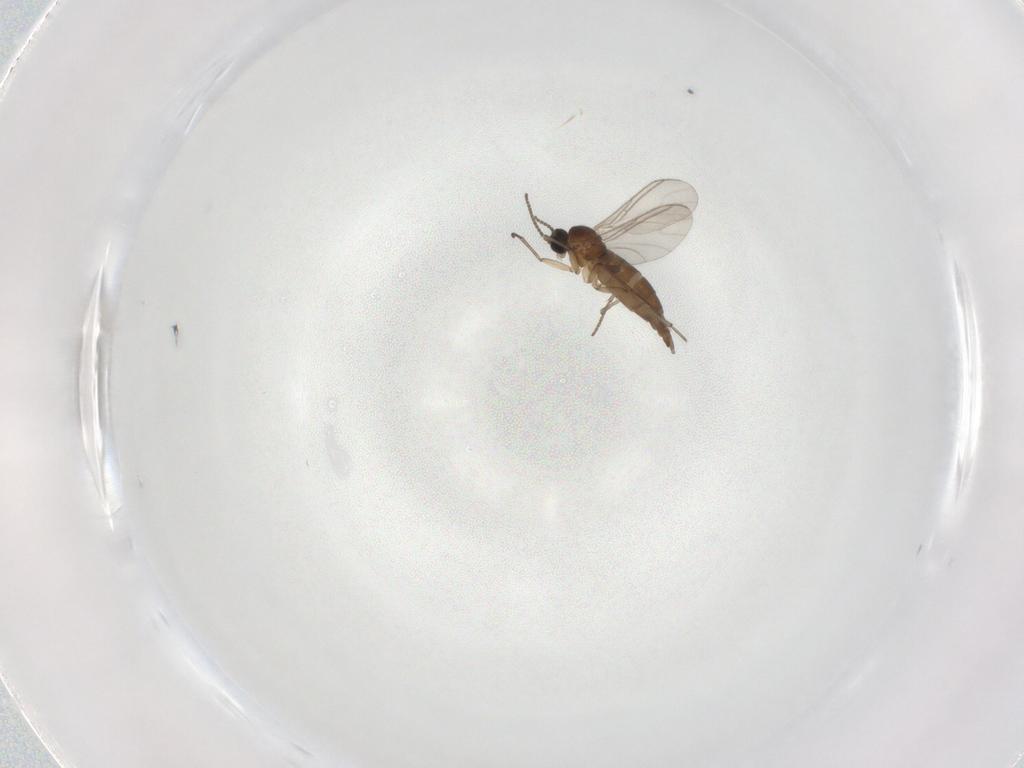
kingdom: Animalia
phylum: Arthropoda
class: Insecta
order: Diptera
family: Sciaridae
